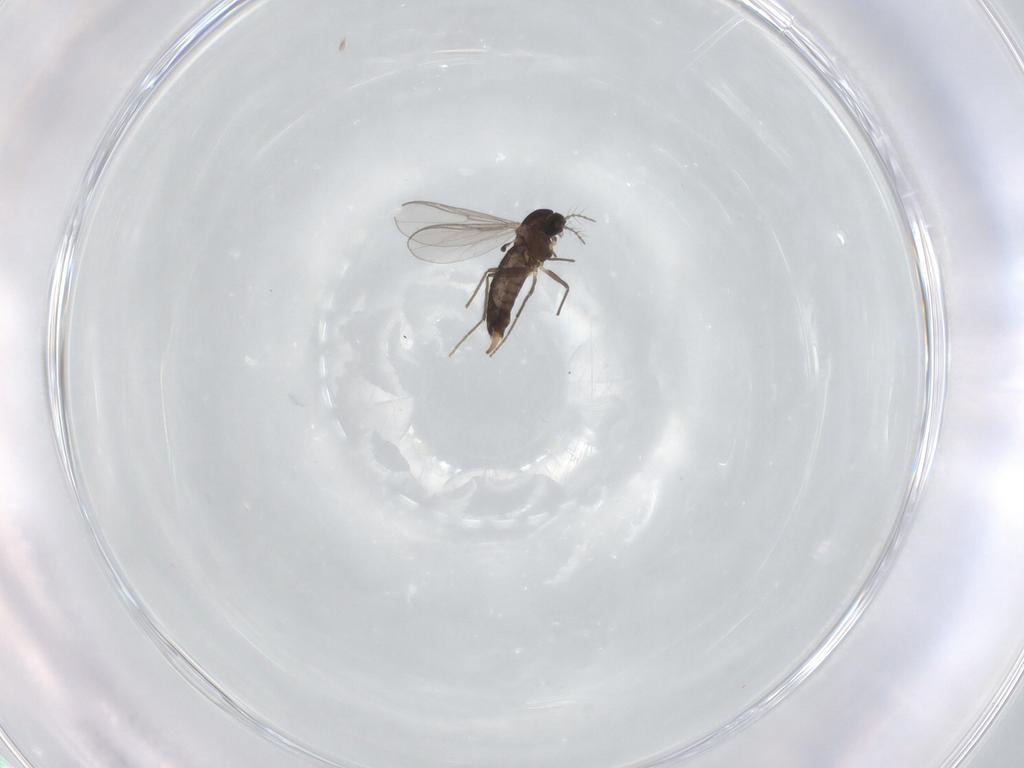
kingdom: Animalia
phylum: Arthropoda
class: Insecta
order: Diptera
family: Chironomidae
